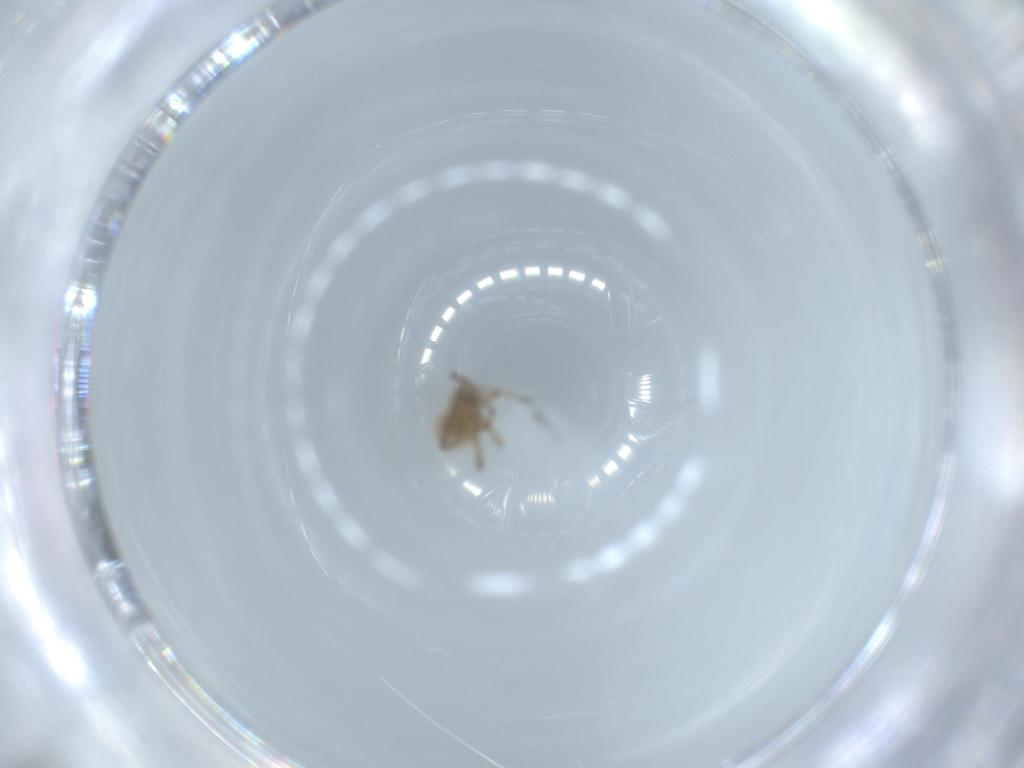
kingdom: Animalia
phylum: Arthropoda
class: Insecta
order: Hemiptera
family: Aphididae
